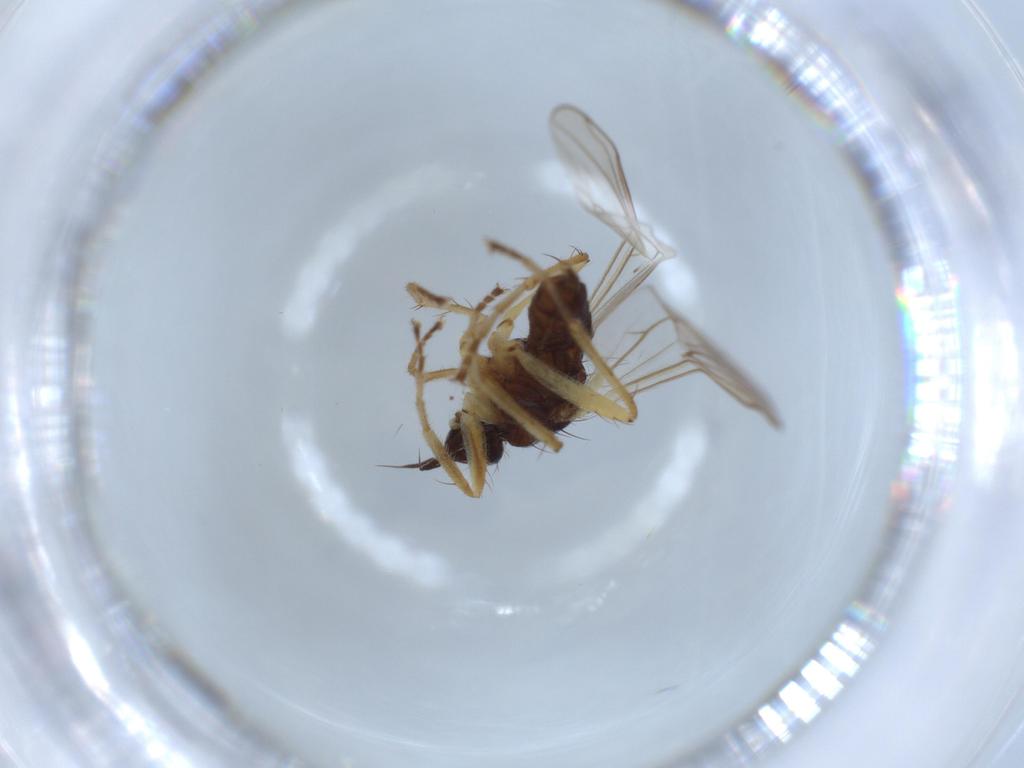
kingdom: Animalia
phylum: Arthropoda
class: Insecta
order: Diptera
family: Hybotidae
